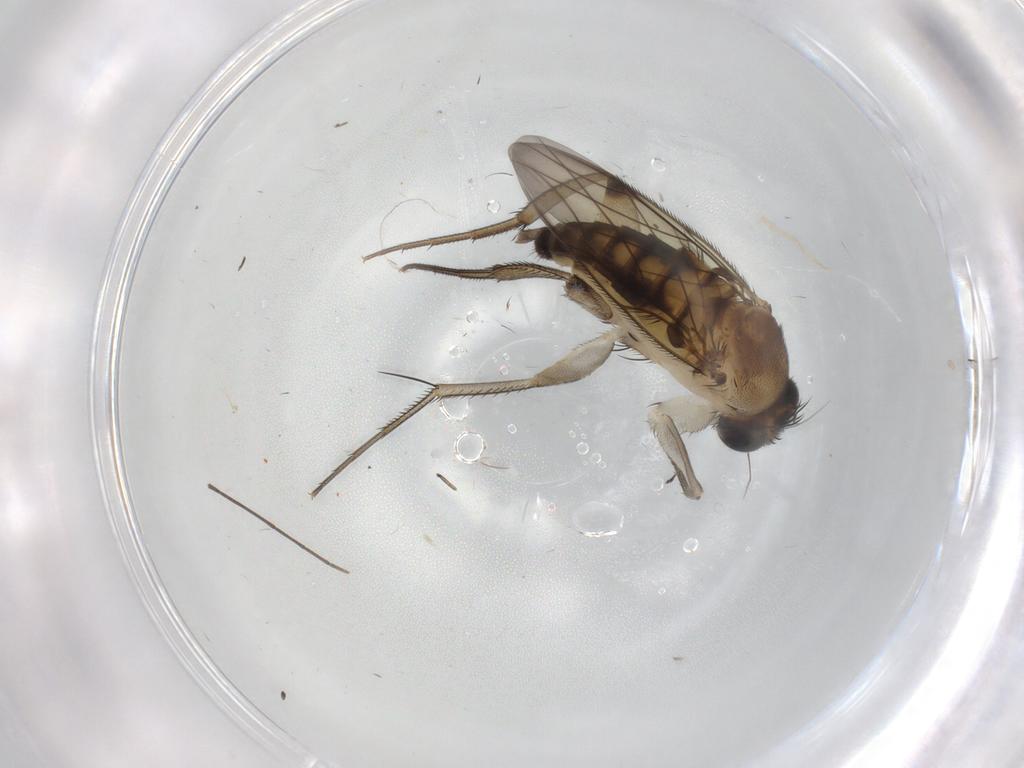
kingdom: Animalia
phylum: Arthropoda
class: Insecta
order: Diptera
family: Phoridae
